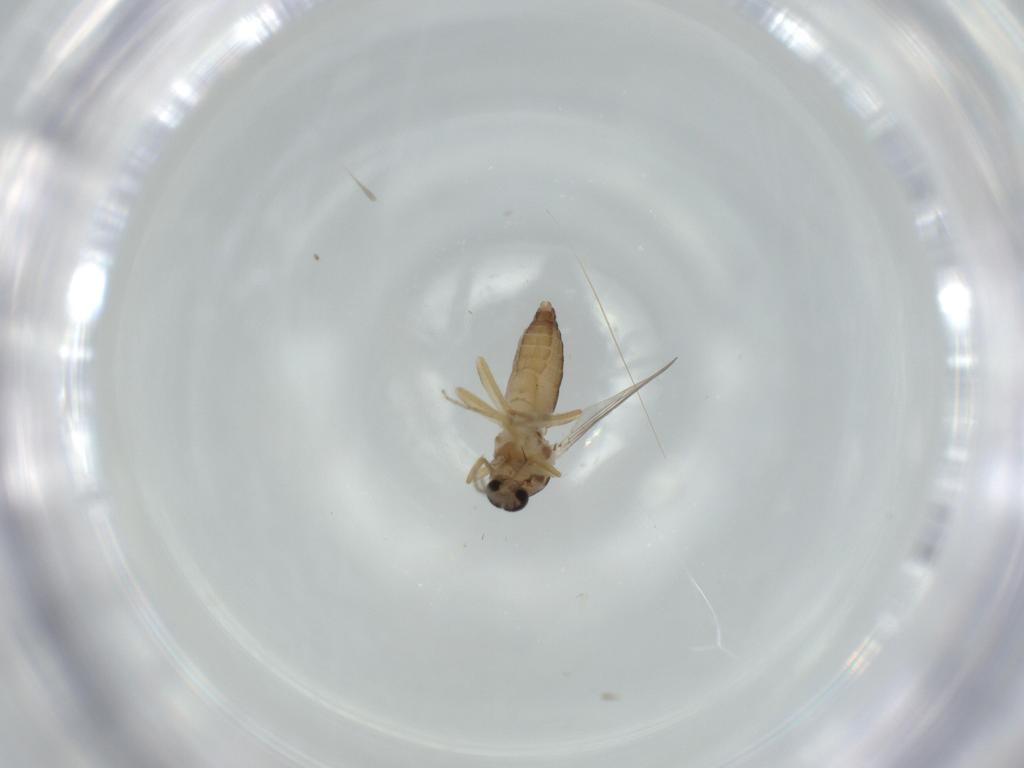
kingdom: Animalia
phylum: Arthropoda
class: Insecta
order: Diptera
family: Ceratopogonidae
